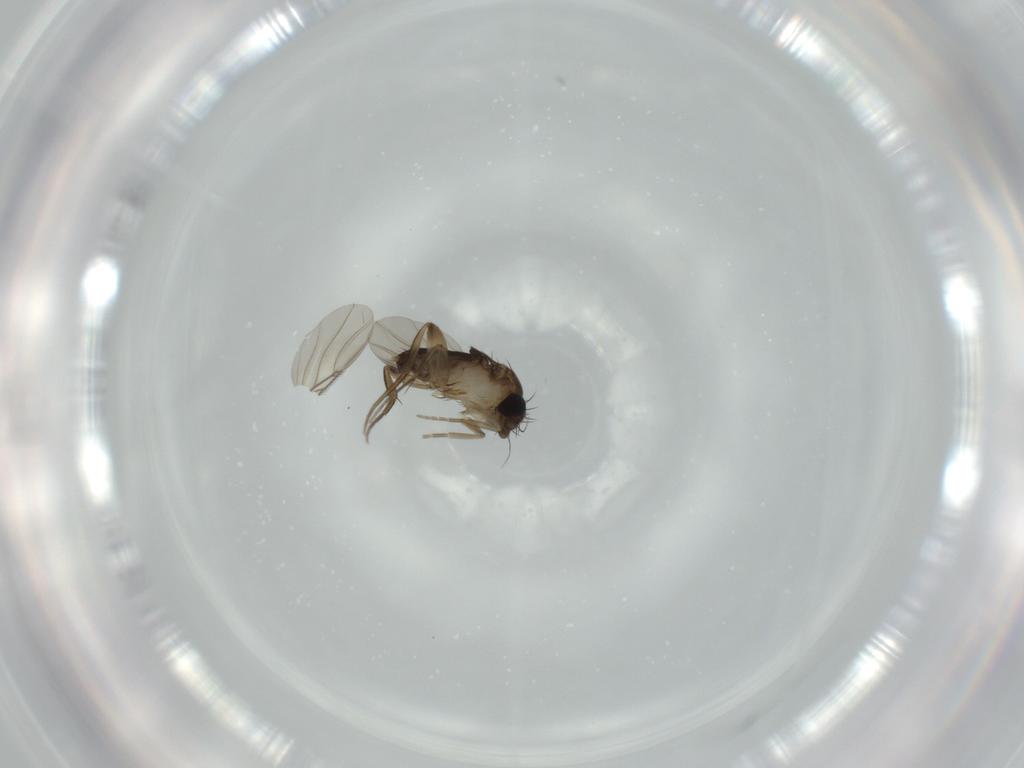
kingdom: Animalia
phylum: Arthropoda
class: Insecta
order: Diptera
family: Phoridae
